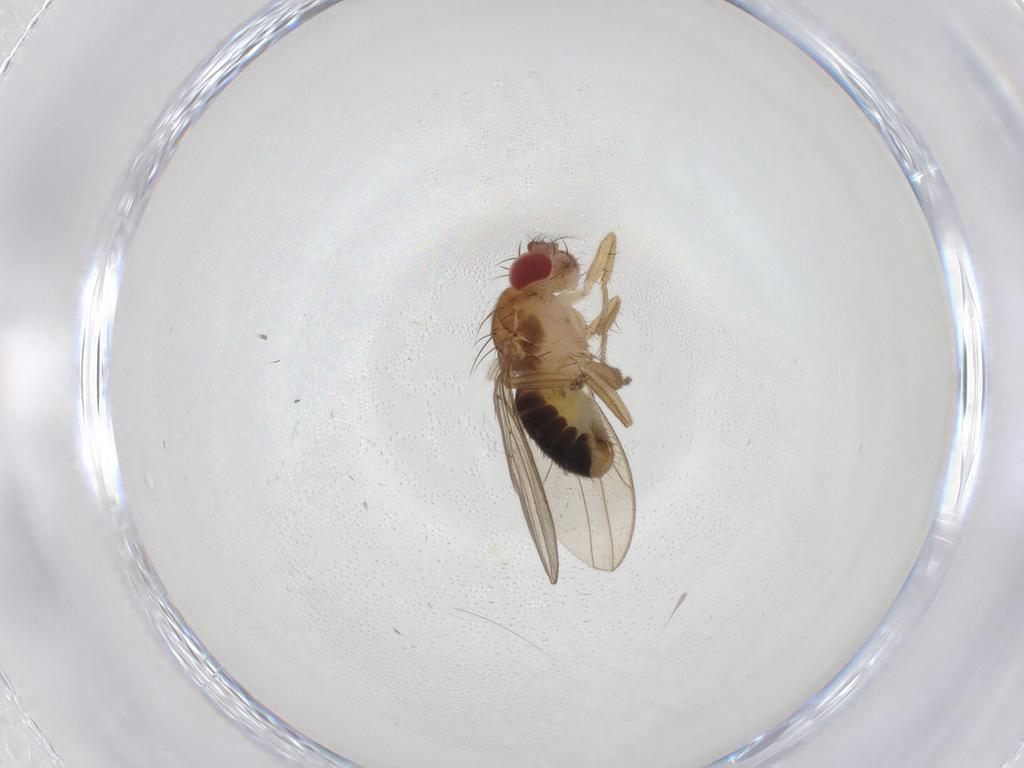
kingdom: Animalia
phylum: Arthropoda
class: Insecta
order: Diptera
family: Drosophilidae
